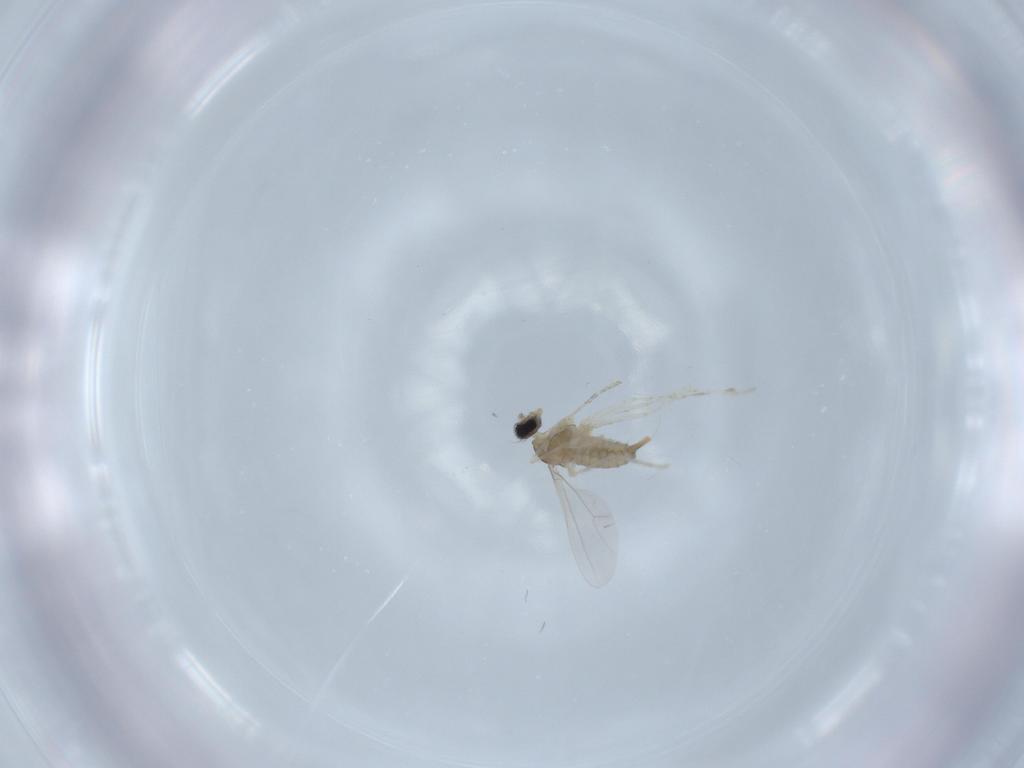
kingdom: Animalia
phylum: Arthropoda
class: Insecta
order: Diptera
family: Cecidomyiidae
